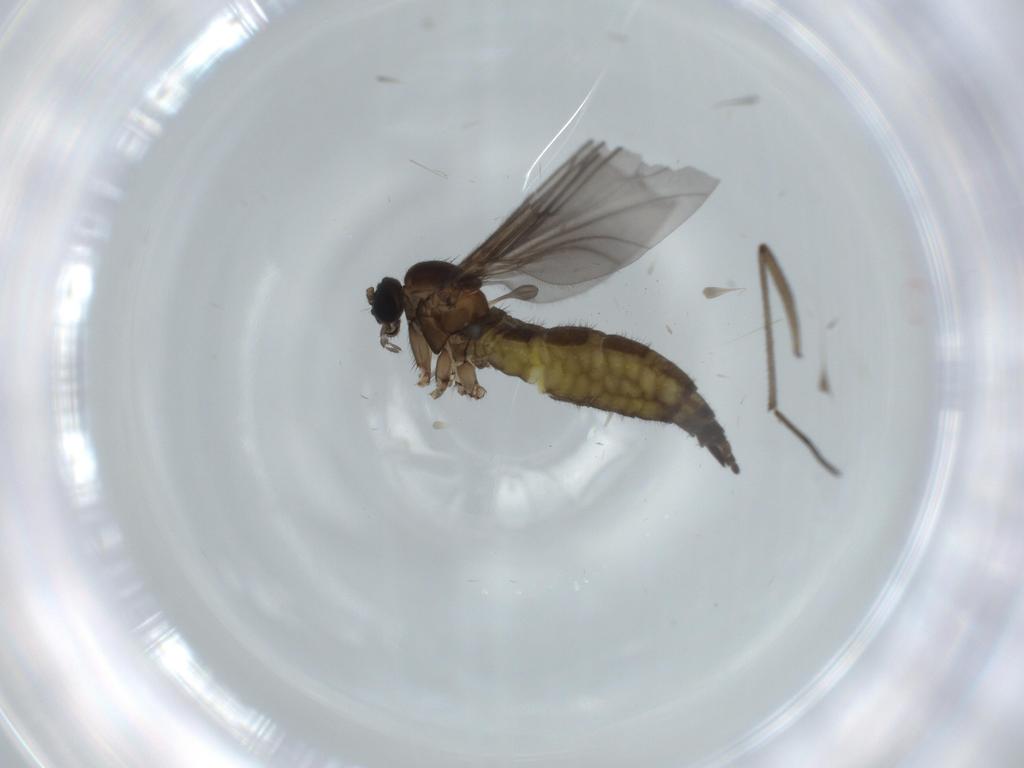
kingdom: Animalia
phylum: Arthropoda
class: Insecta
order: Diptera
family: Sciaridae
